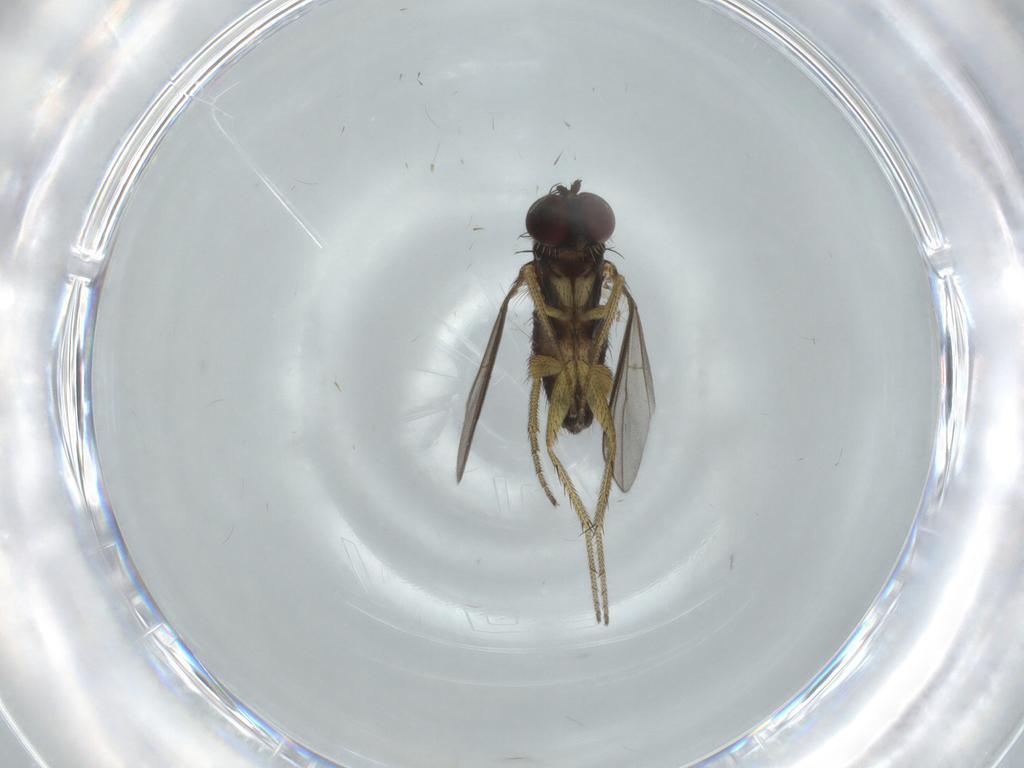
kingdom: Animalia
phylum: Arthropoda
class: Insecta
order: Diptera
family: Dolichopodidae
